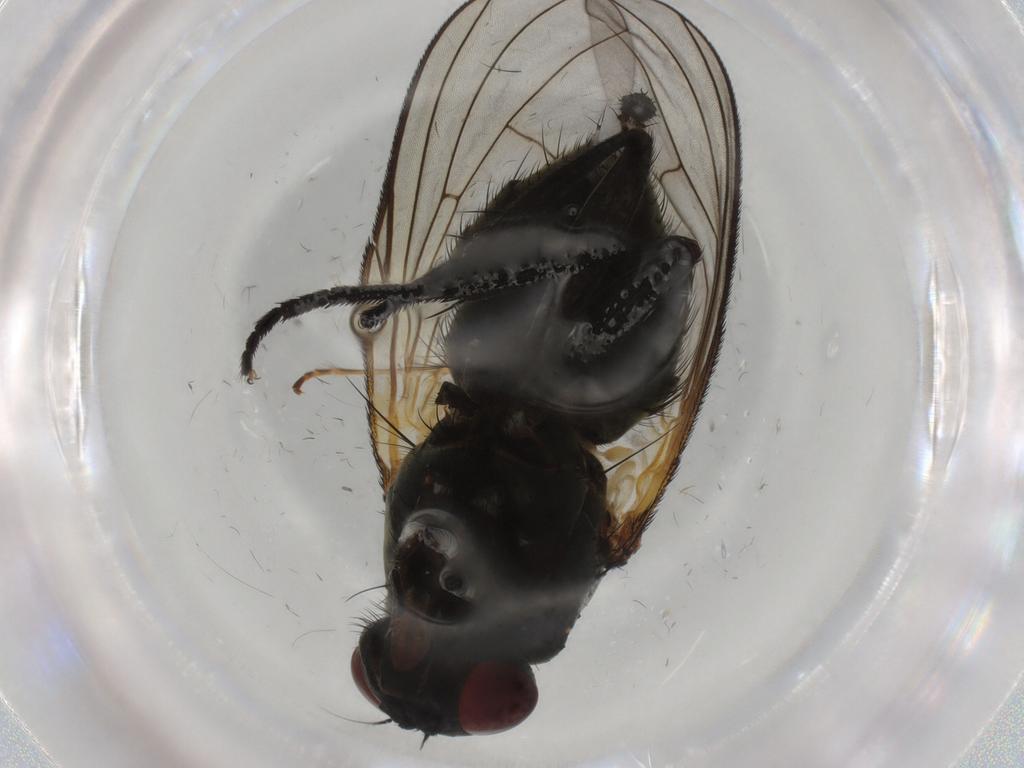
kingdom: Animalia
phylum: Arthropoda
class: Insecta
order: Diptera
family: Muscidae
